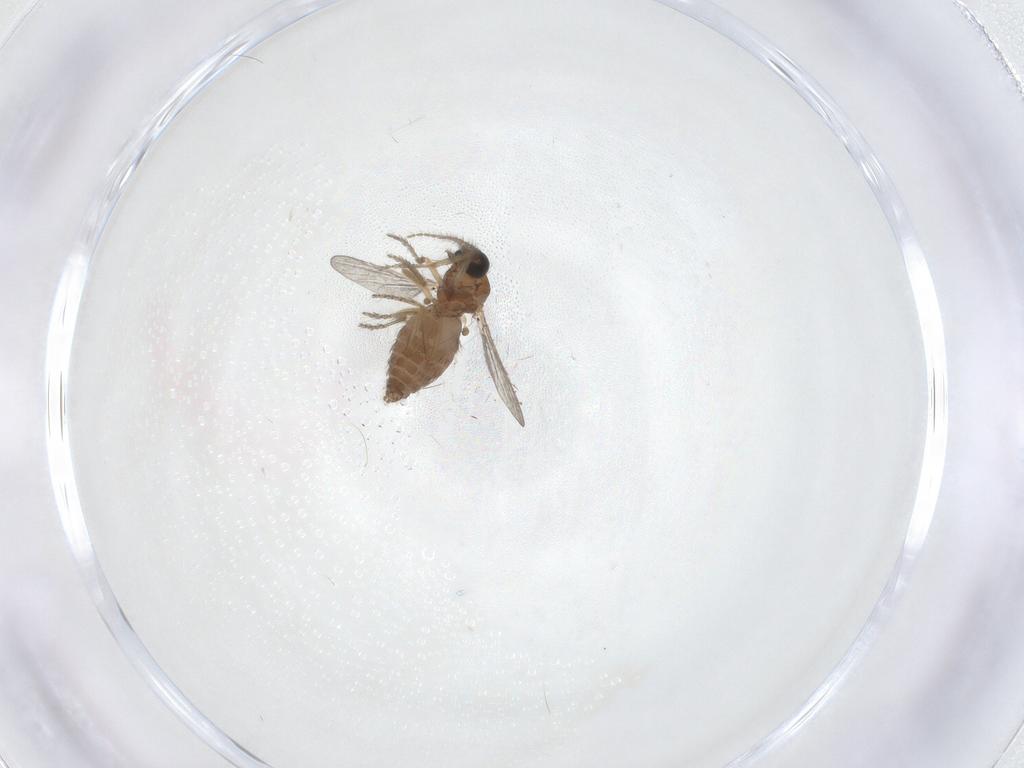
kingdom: Animalia
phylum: Arthropoda
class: Insecta
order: Diptera
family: Ceratopogonidae
